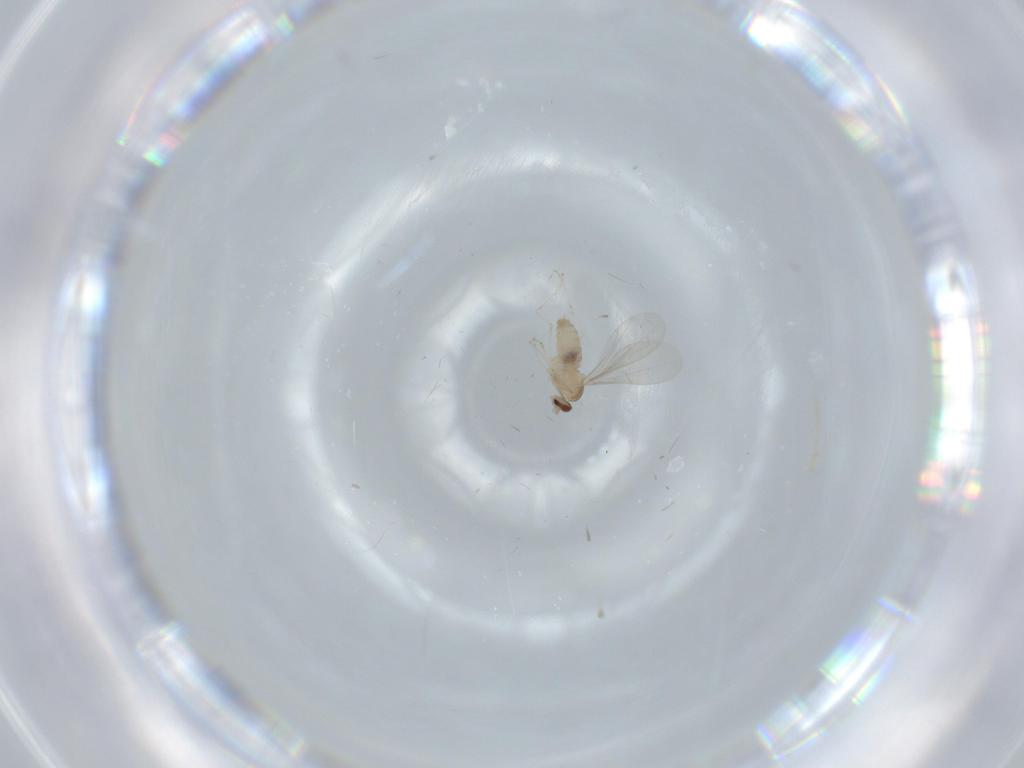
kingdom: Animalia
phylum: Arthropoda
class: Insecta
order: Diptera
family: Cecidomyiidae
